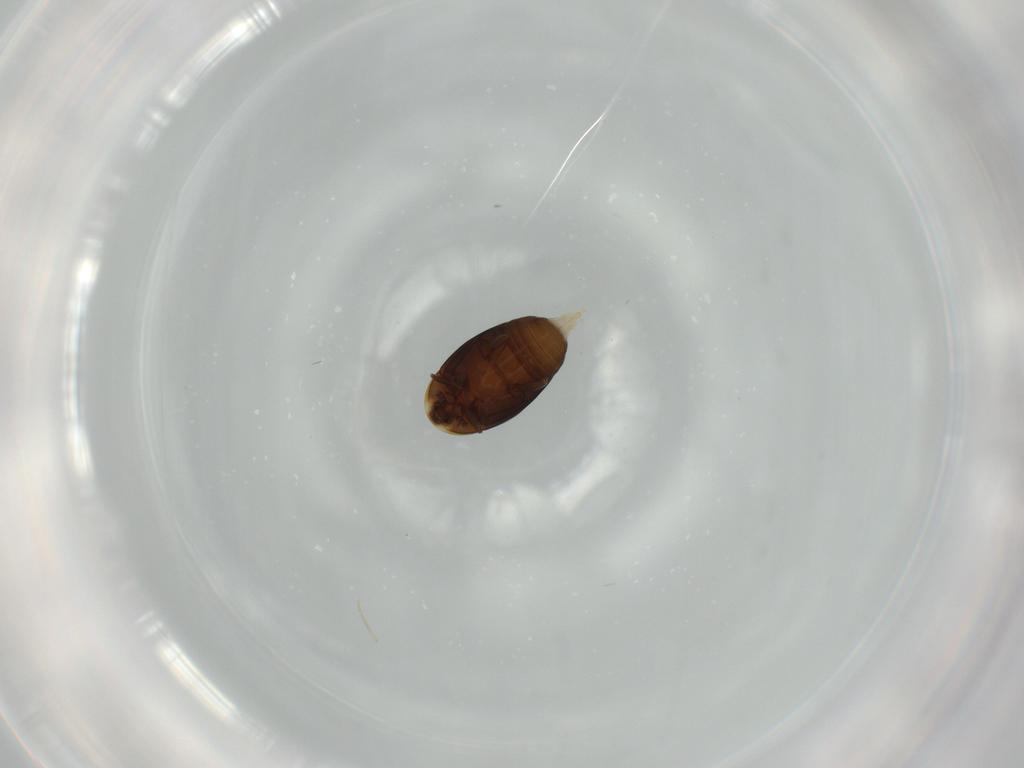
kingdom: Animalia
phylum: Arthropoda
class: Insecta
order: Coleoptera
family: Corylophidae
